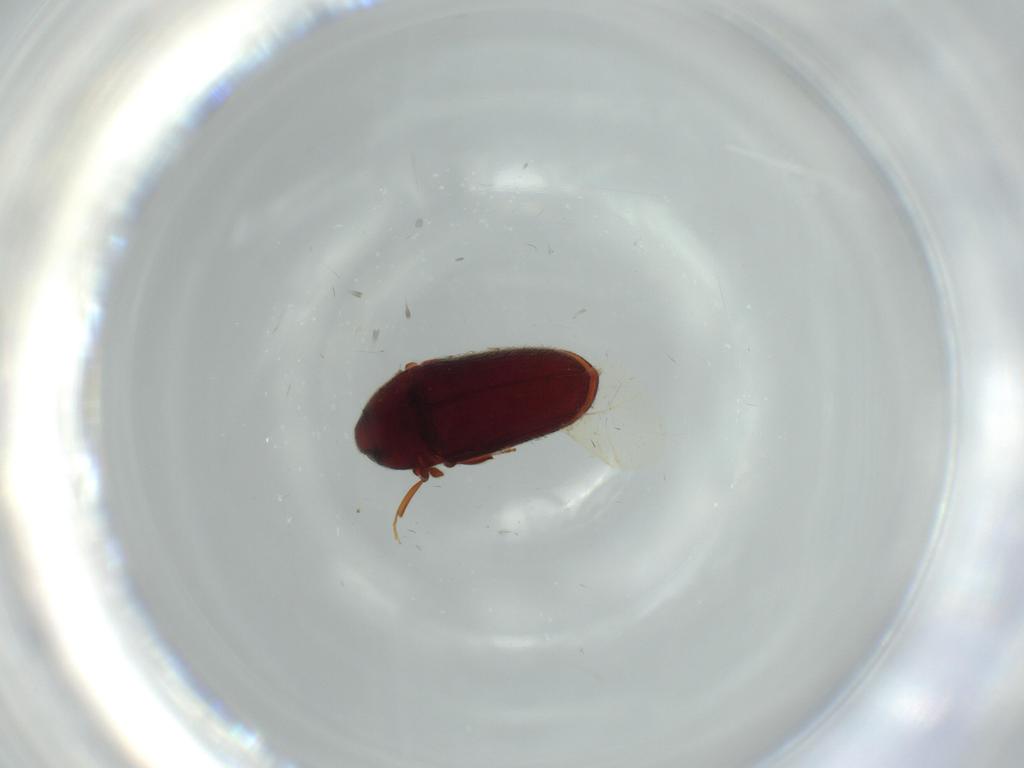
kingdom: Animalia
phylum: Arthropoda
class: Insecta
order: Coleoptera
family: Throscidae
